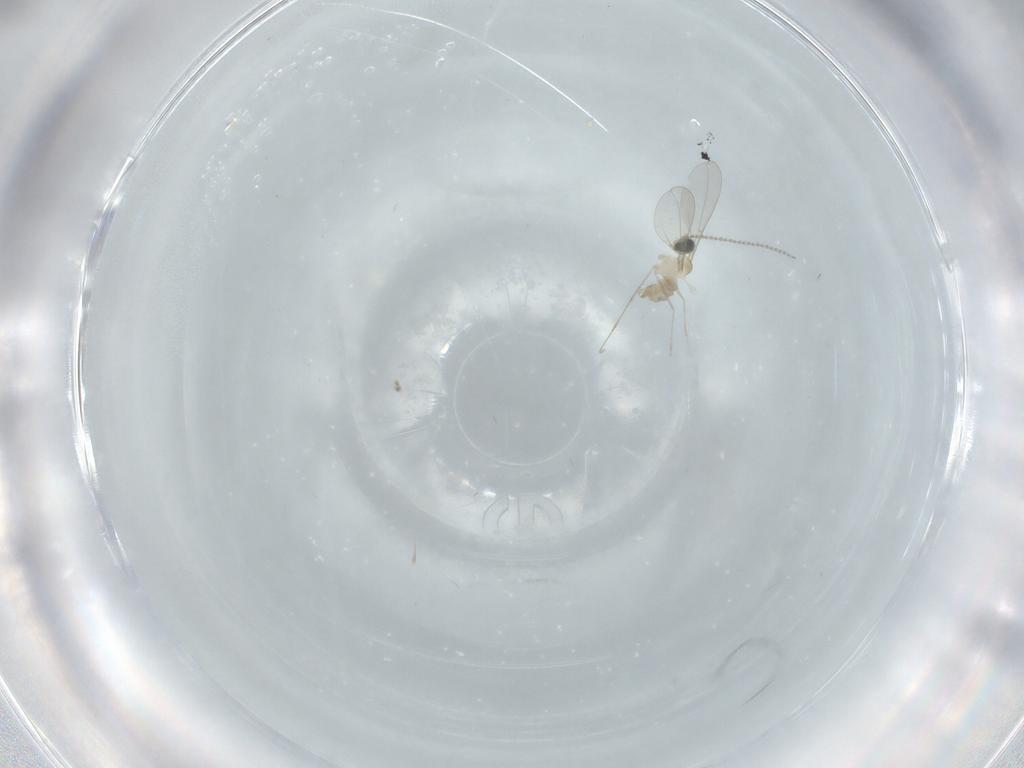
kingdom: Animalia
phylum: Arthropoda
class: Insecta
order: Diptera
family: Cecidomyiidae
